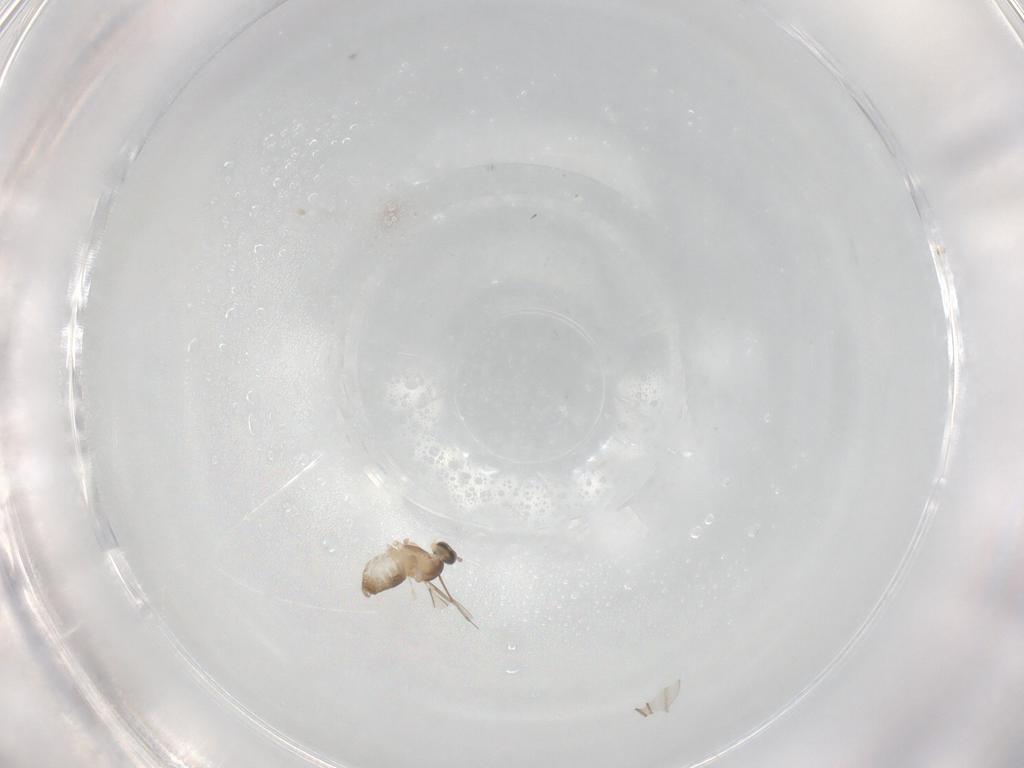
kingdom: Animalia
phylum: Arthropoda
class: Insecta
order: Diptera
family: Cecidomyiidae
